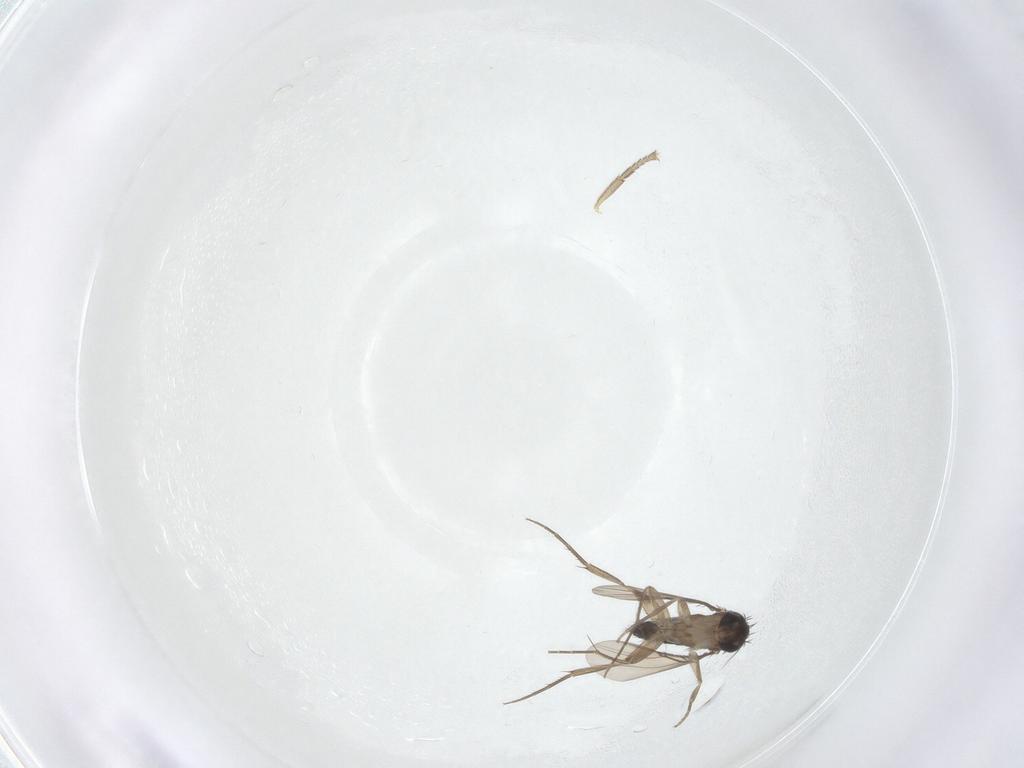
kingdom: Animalia
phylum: Arthropoda
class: Insecta
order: Diptera
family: Phoridae
